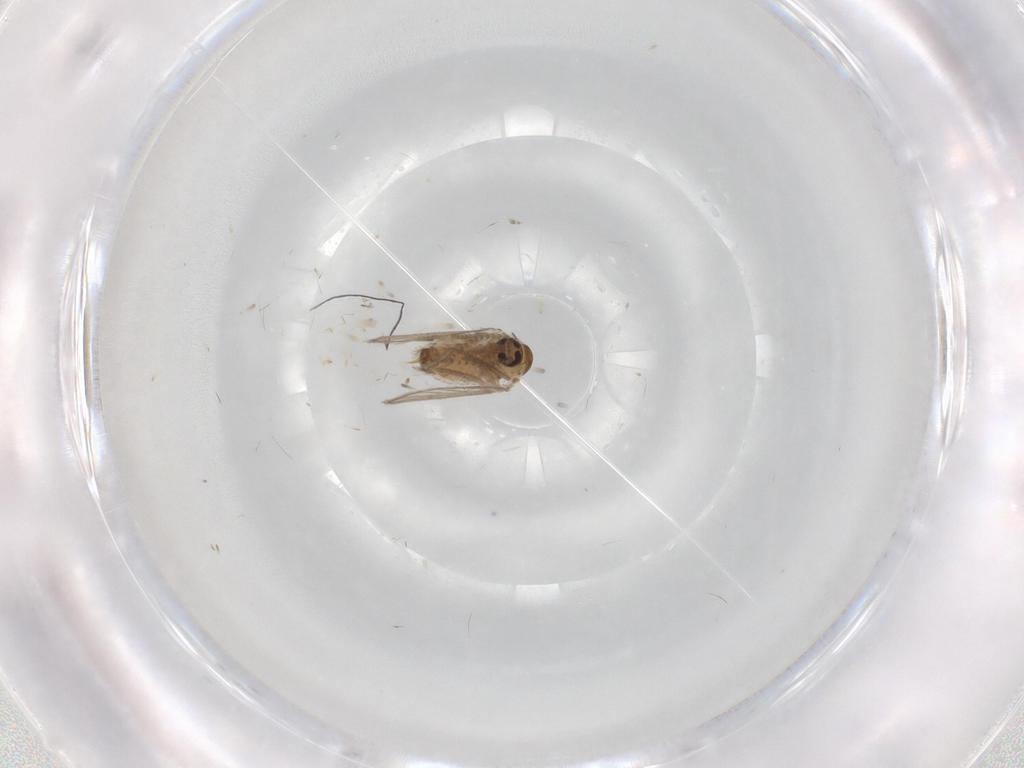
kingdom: Animalia
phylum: Arthropoda
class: Insecta
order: Diptera
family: Psychodidae
